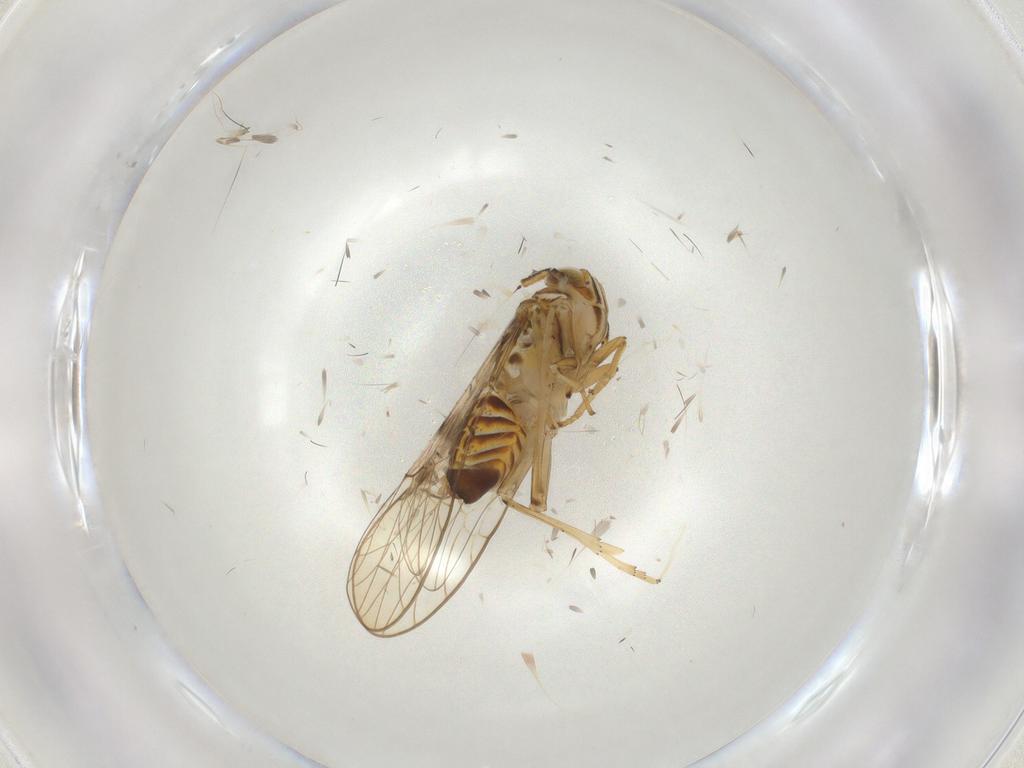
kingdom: Animalia
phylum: Arthropoda
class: Insecta
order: Hemiptera
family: Delphacidae
